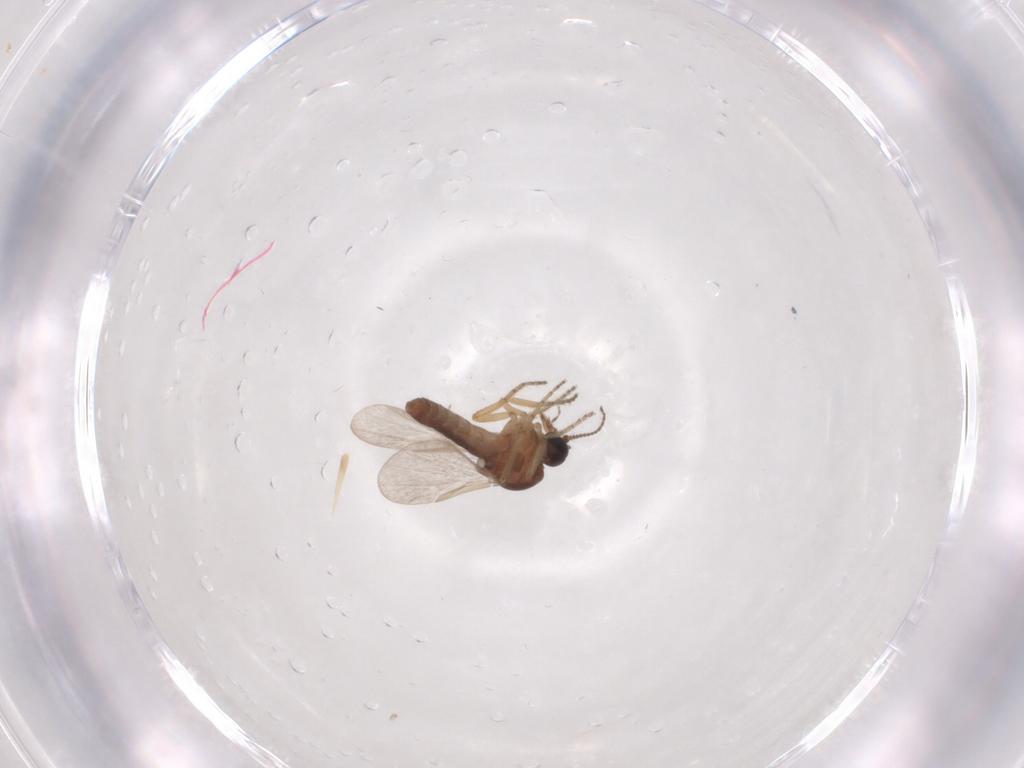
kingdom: Animalia
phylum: Arthropoda
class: Insecta
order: Diptera
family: Ceratopogonidae
